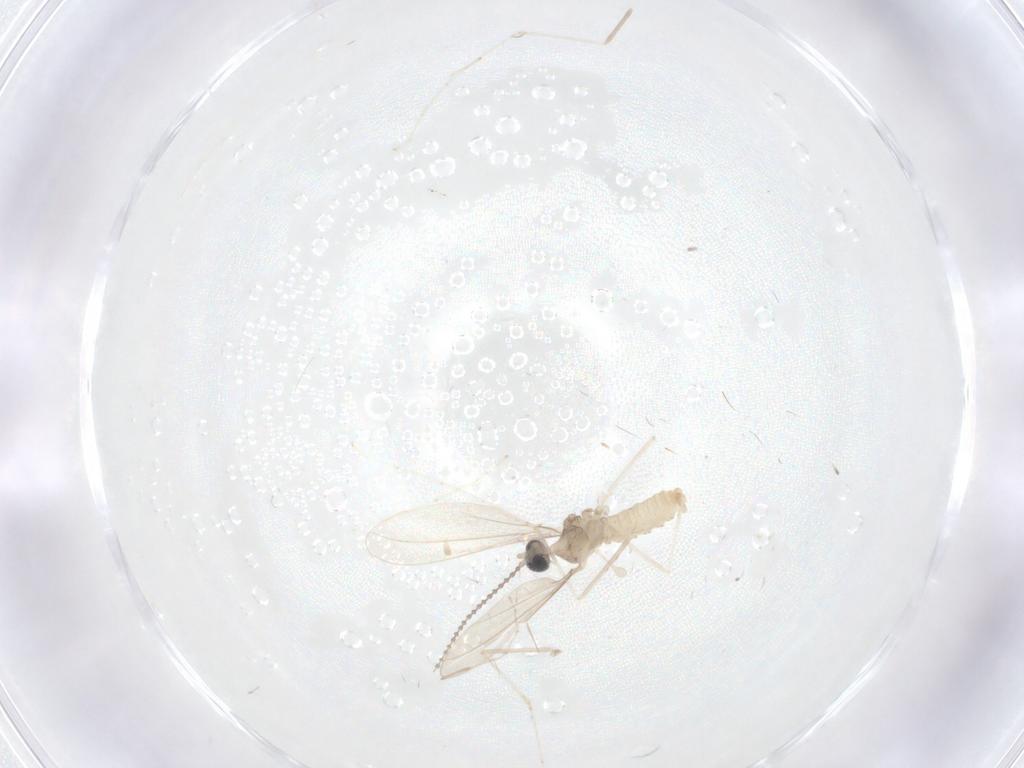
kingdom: Animalia
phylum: Arthropoda
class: Insecta
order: Diptera
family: Cecidomyiidae
